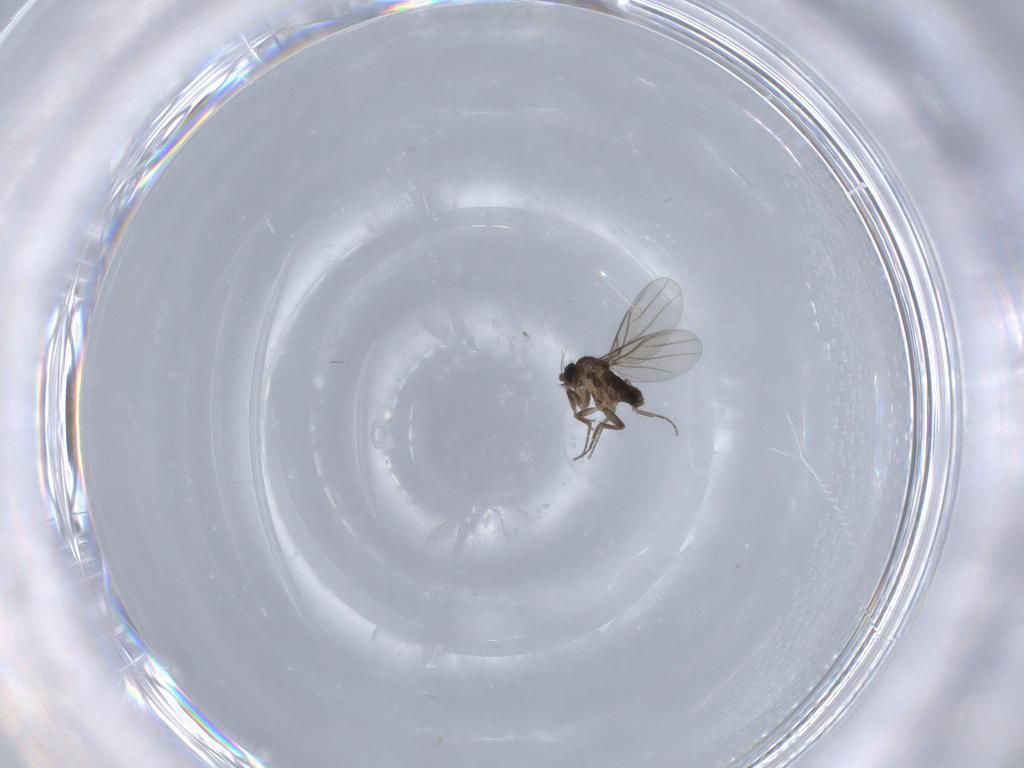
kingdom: Animalia
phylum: Arthropoda
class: Insecta
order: Diptera
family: Phoridae
